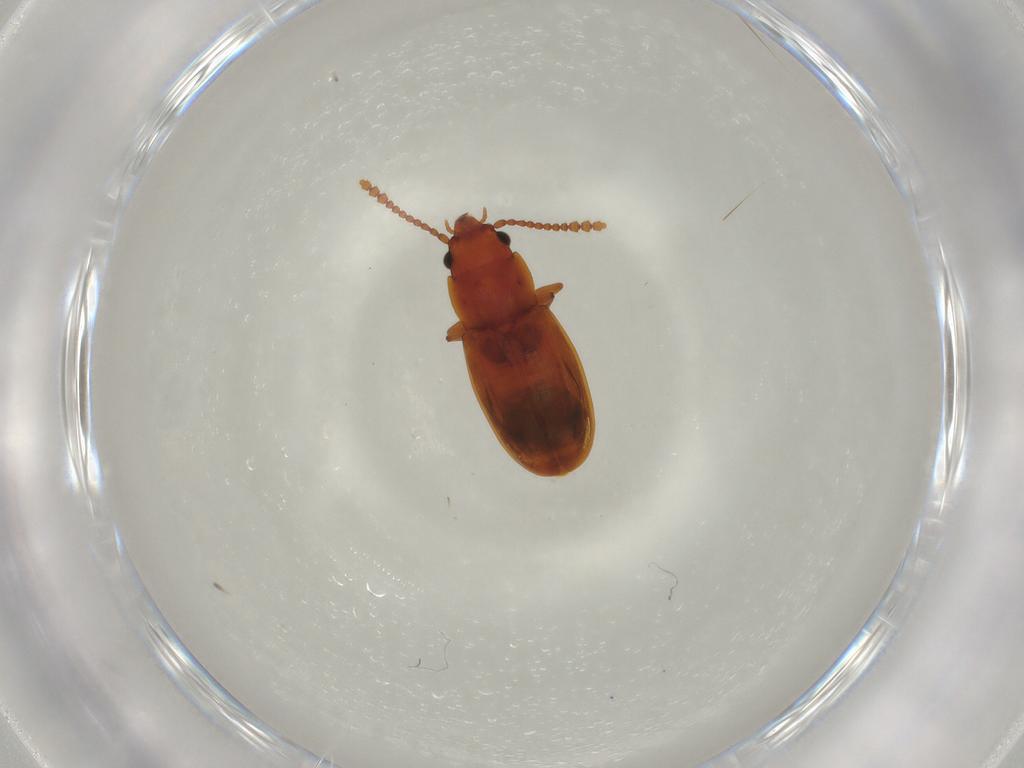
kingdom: Animalia
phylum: Arthropoda
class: Insecta
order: Coleoptera
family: Laemophloeidae
